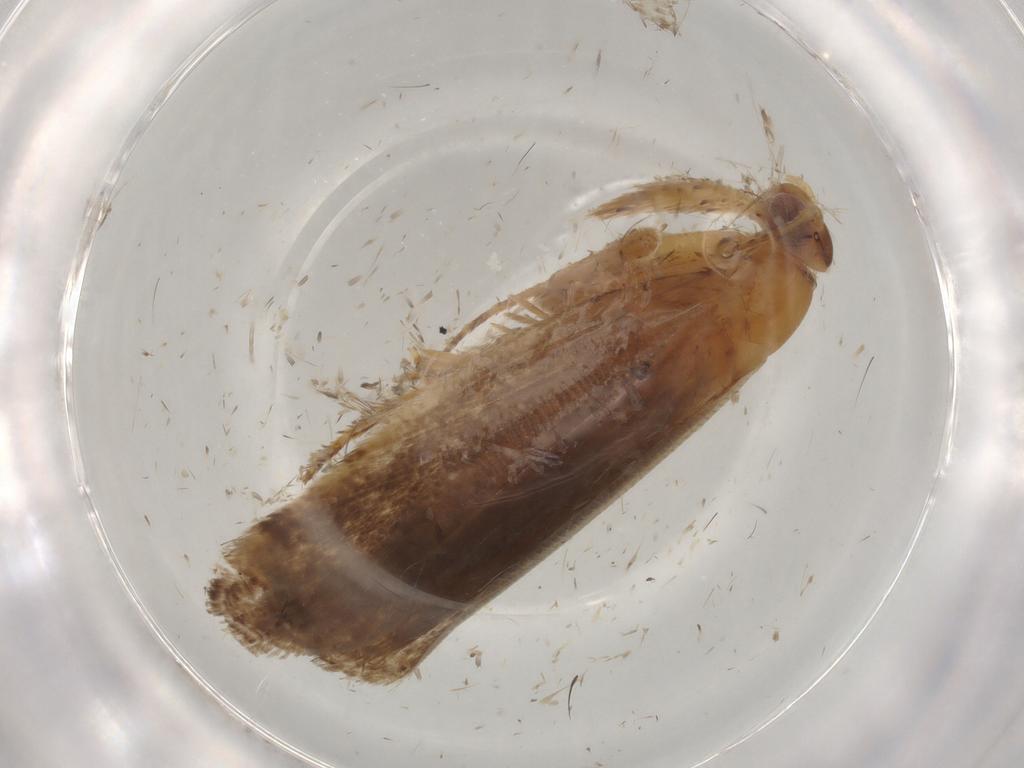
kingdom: Animalia
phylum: Arthropoda
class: Insecta
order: Lepidoptera
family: Gelechiidae
